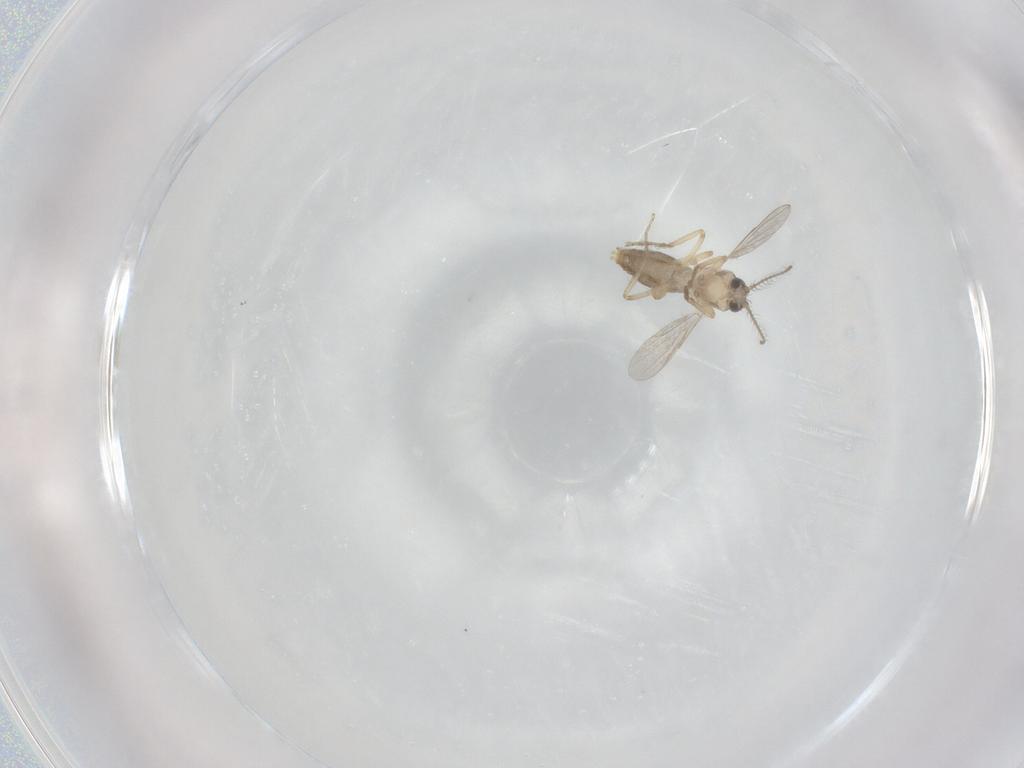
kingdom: Animalia
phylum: Arthropoda
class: Insecta
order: Diptera
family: Ceratopogonidae
